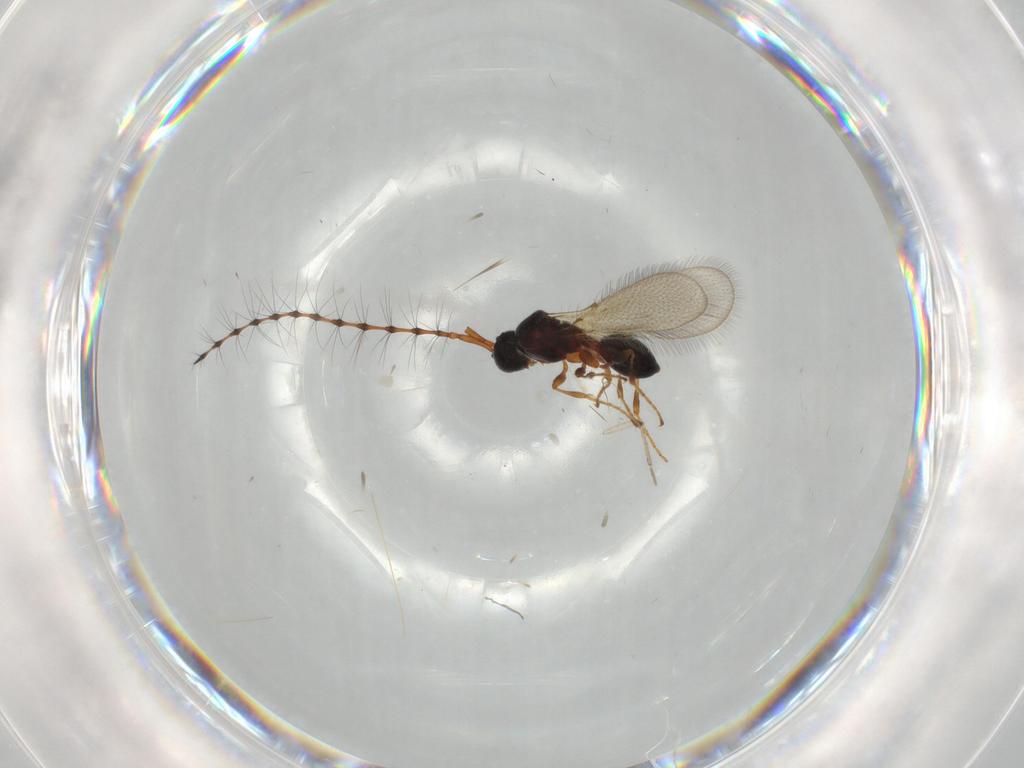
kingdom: Animalia
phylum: Arthropoda
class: Insecta
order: Hymenoptera
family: Diapriidae
